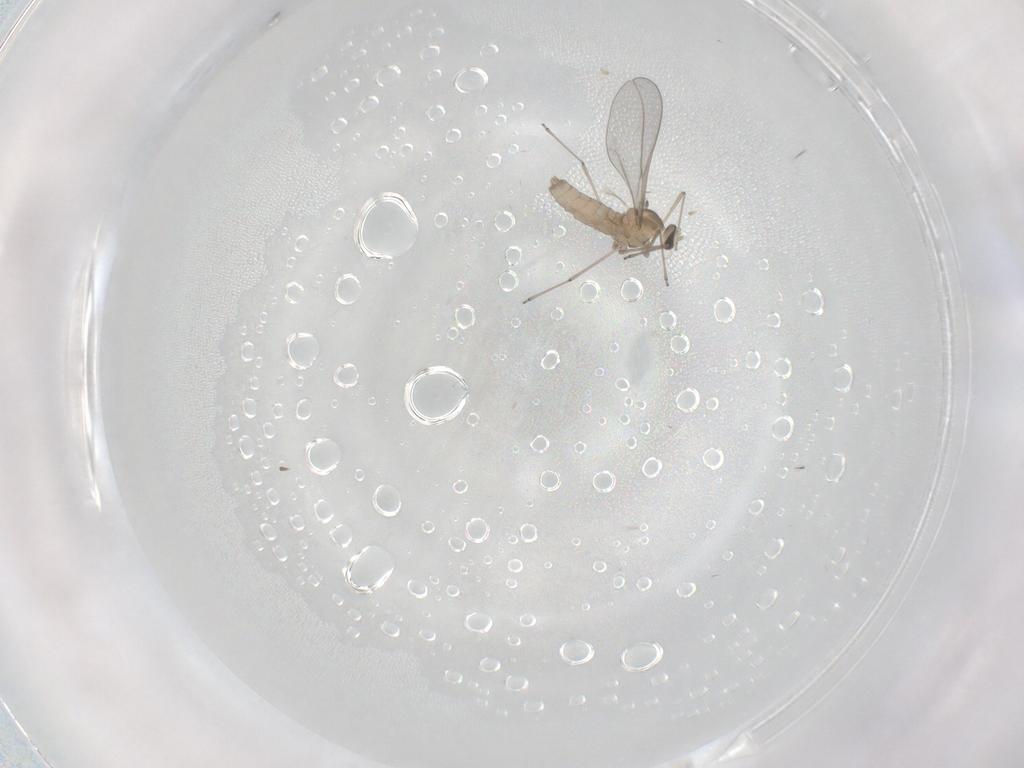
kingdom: Animalia
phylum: Arthropoda
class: Insecta
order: Diptera
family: Cecidomyiidae
